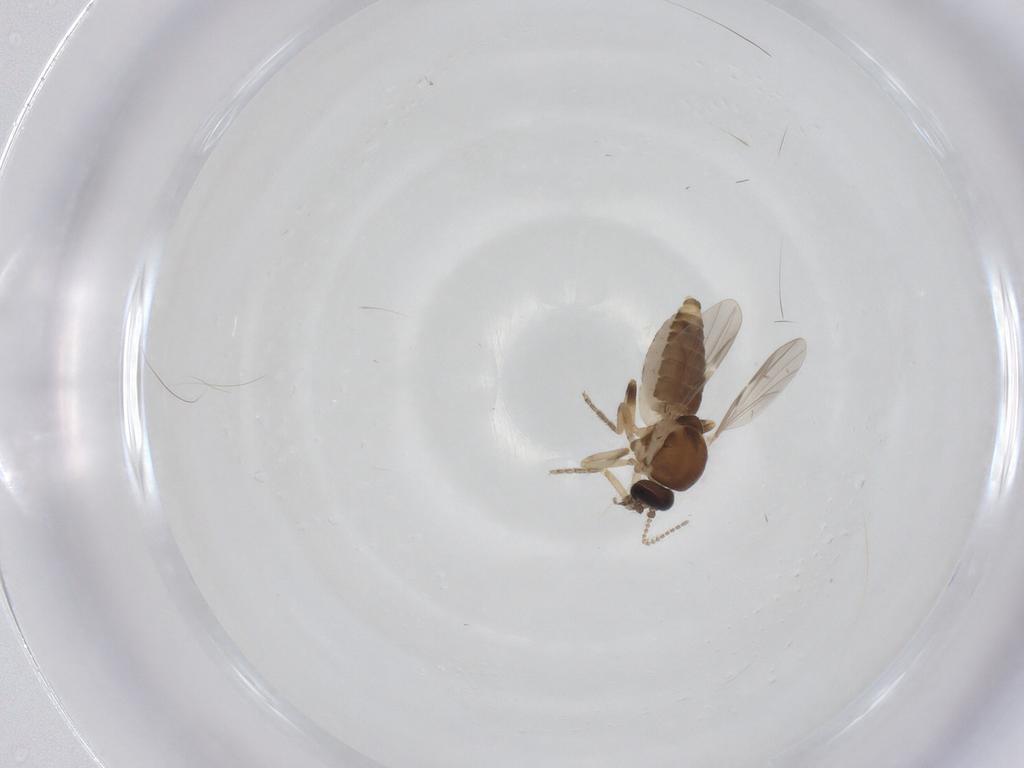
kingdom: Animalia
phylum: Arthropoda
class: Insecta
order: Diptera
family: Ceratopogonidae
